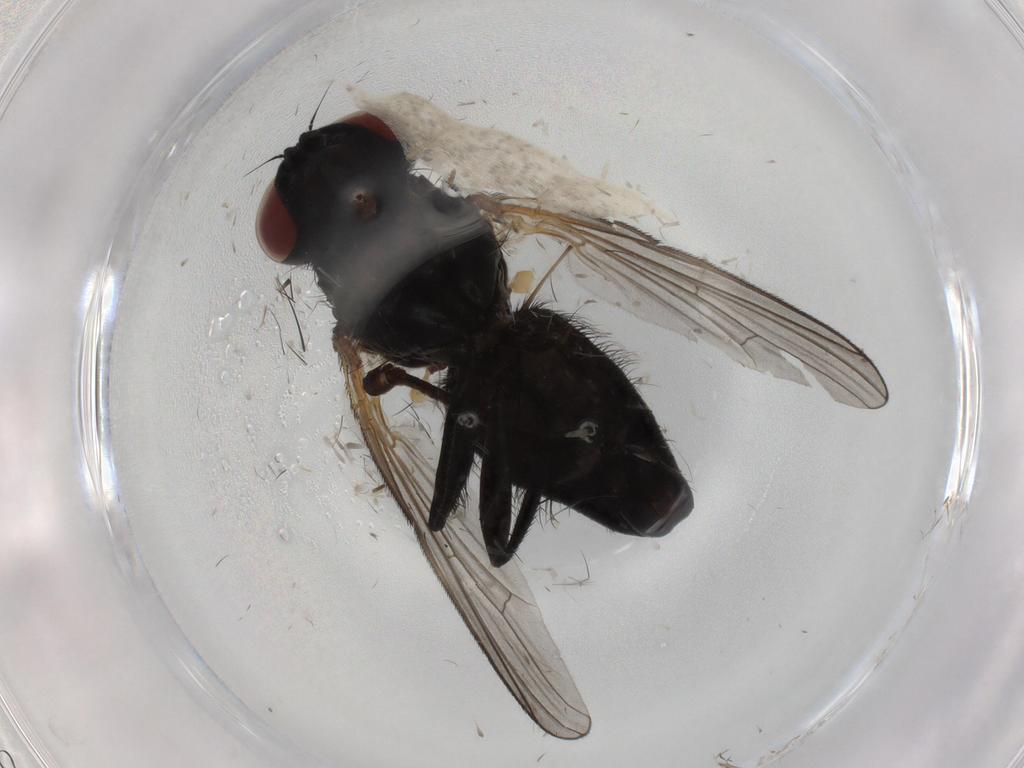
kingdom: Animalia
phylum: Arthropoda
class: Insecta
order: Diptera
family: Fannia
